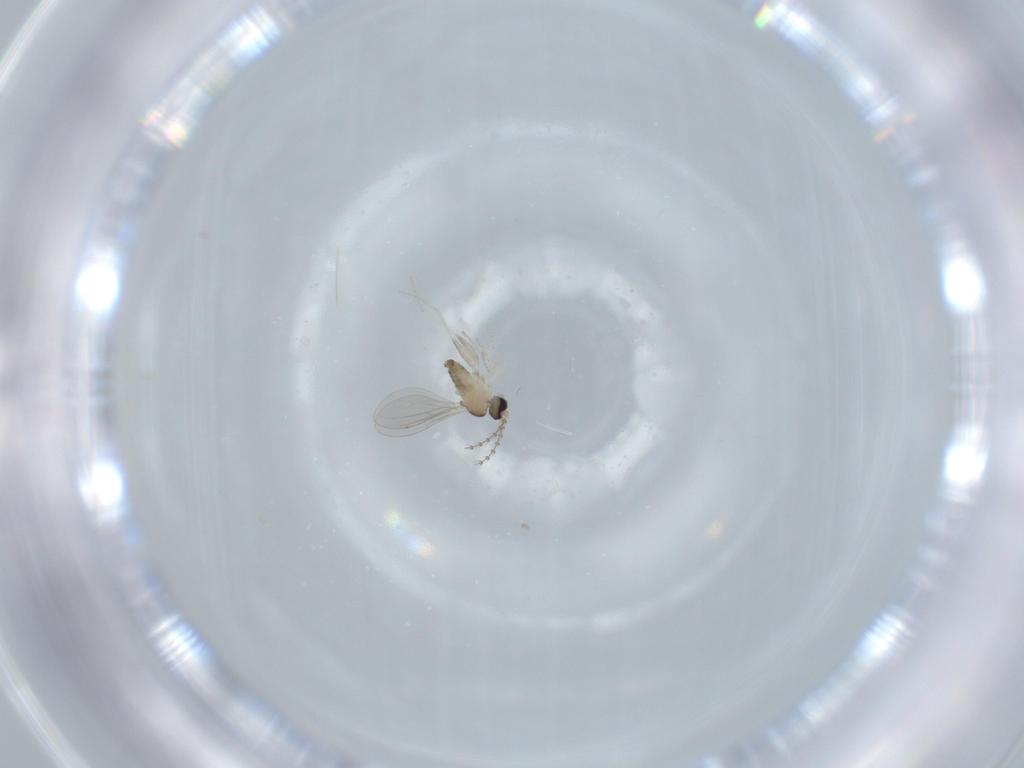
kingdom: Animalia
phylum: Arthropoda
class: Insecta
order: Diptera
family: Cecidomyiidae
